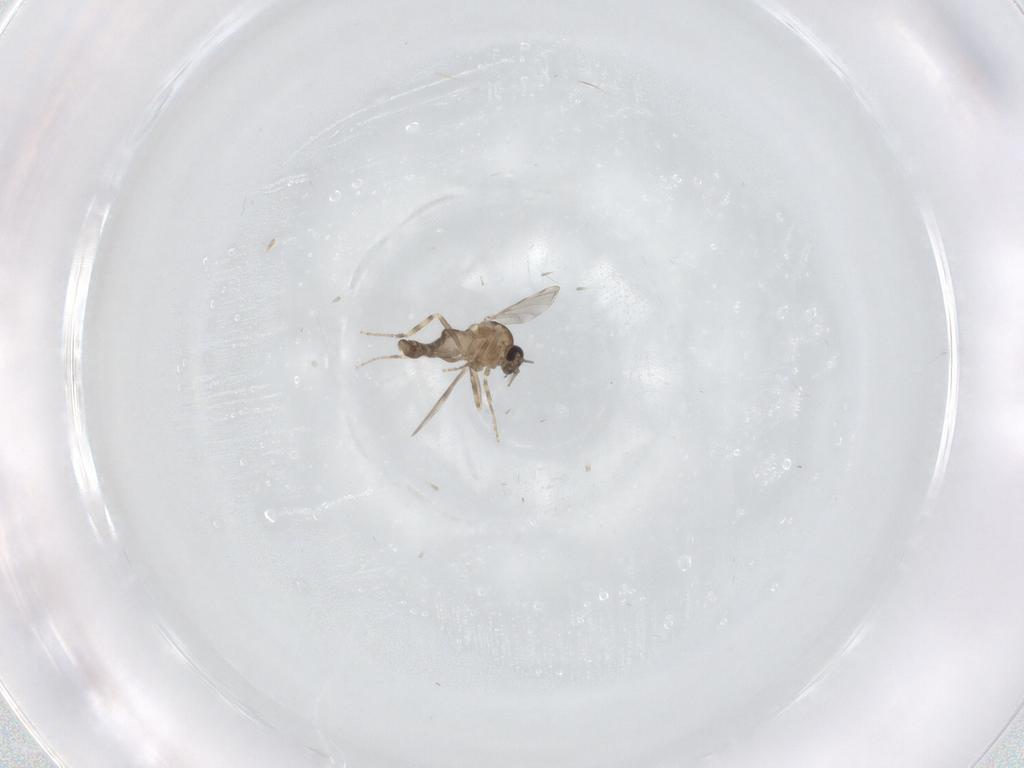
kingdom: Animalia
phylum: Arthropoda
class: Insecta
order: Diptera
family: Ceratopogonidae
